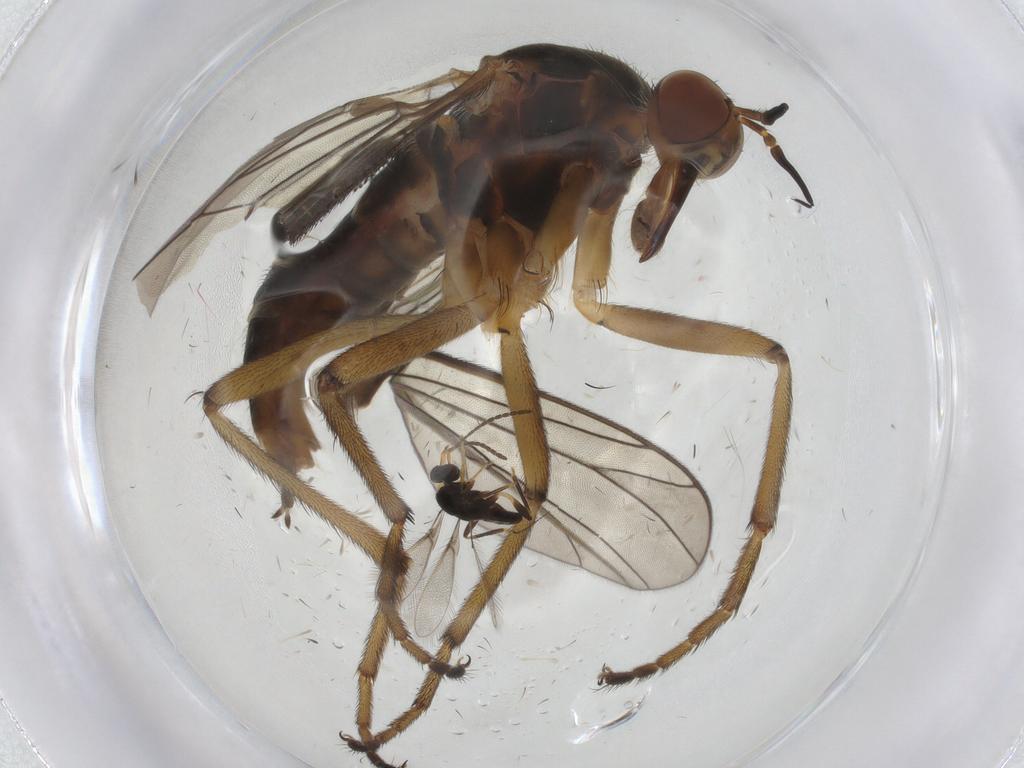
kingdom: Animalia
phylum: Arthropoda
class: Insecta
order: Diptera
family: Empididae
